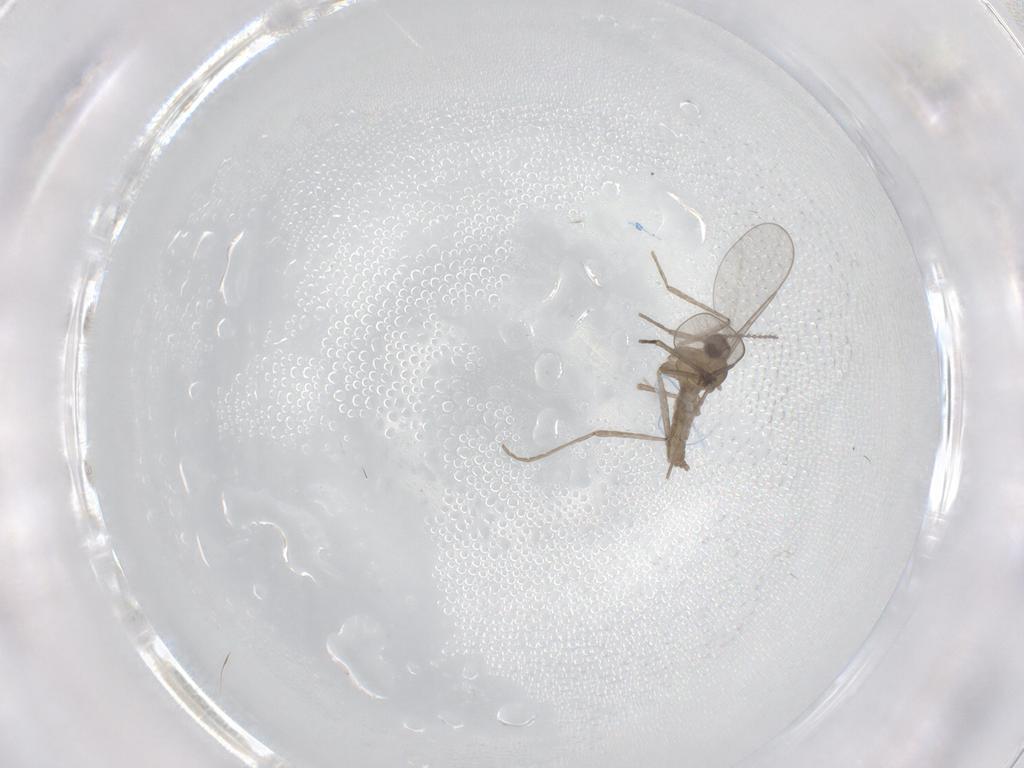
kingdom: Animalia
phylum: Arthropoda
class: Insecta
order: Diptera
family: Cecidomyiidae
